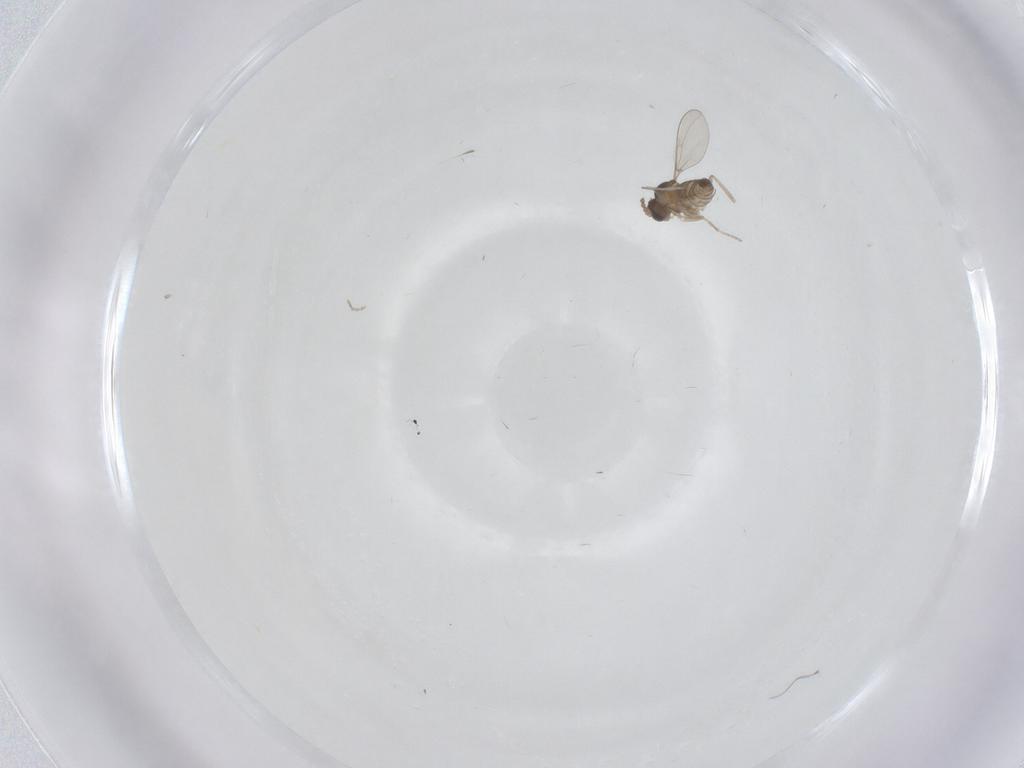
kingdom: Animalia
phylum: Arthropoda
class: Insecta
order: Diptera
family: Cecidomyiidae
